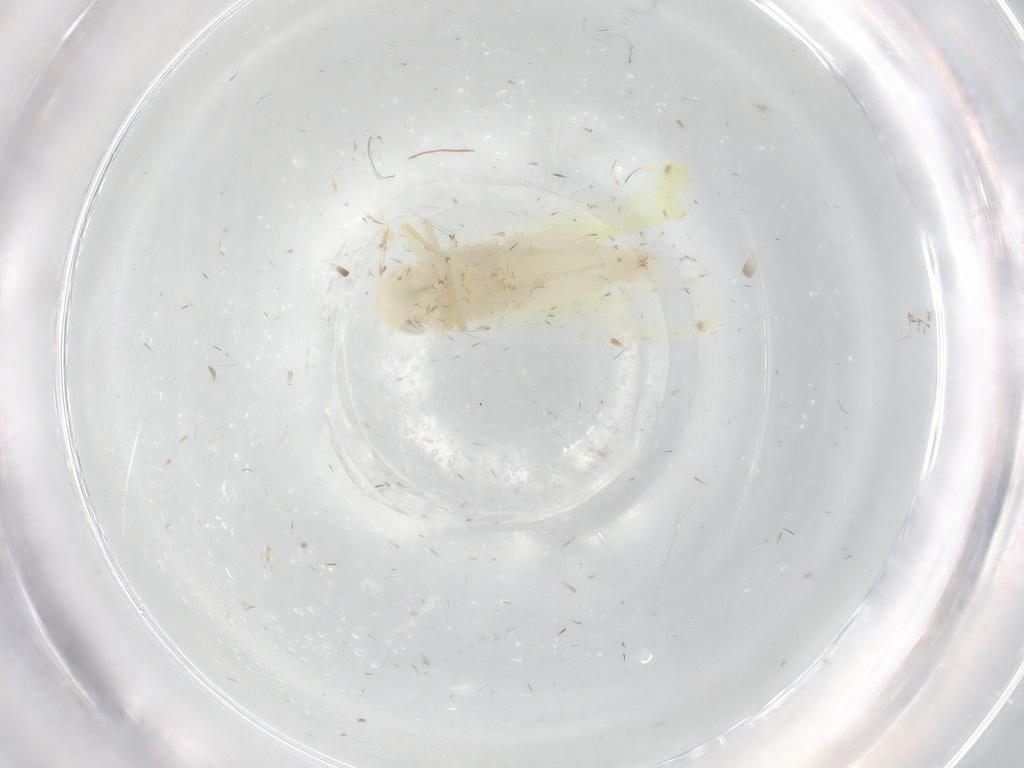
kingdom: Animalia
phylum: Arthropoda
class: Insecta
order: Hemiptera
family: Cicadellidae
